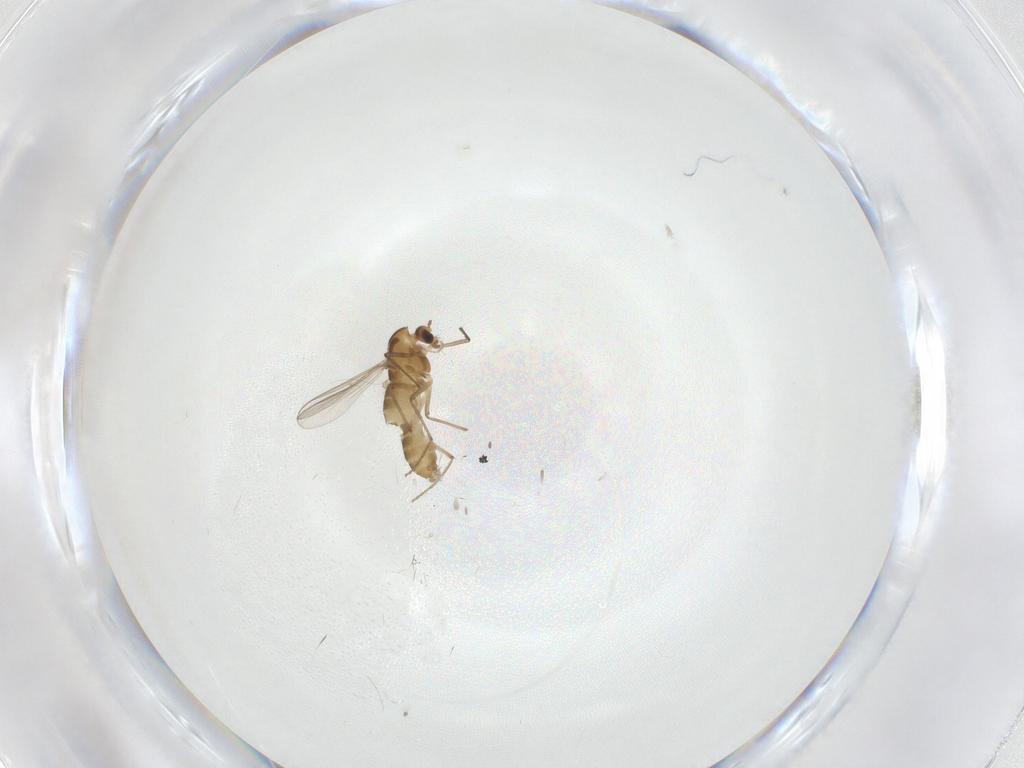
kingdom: Animalia
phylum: Arthropoda
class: Insecta
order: Diptera
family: Chironomidae
